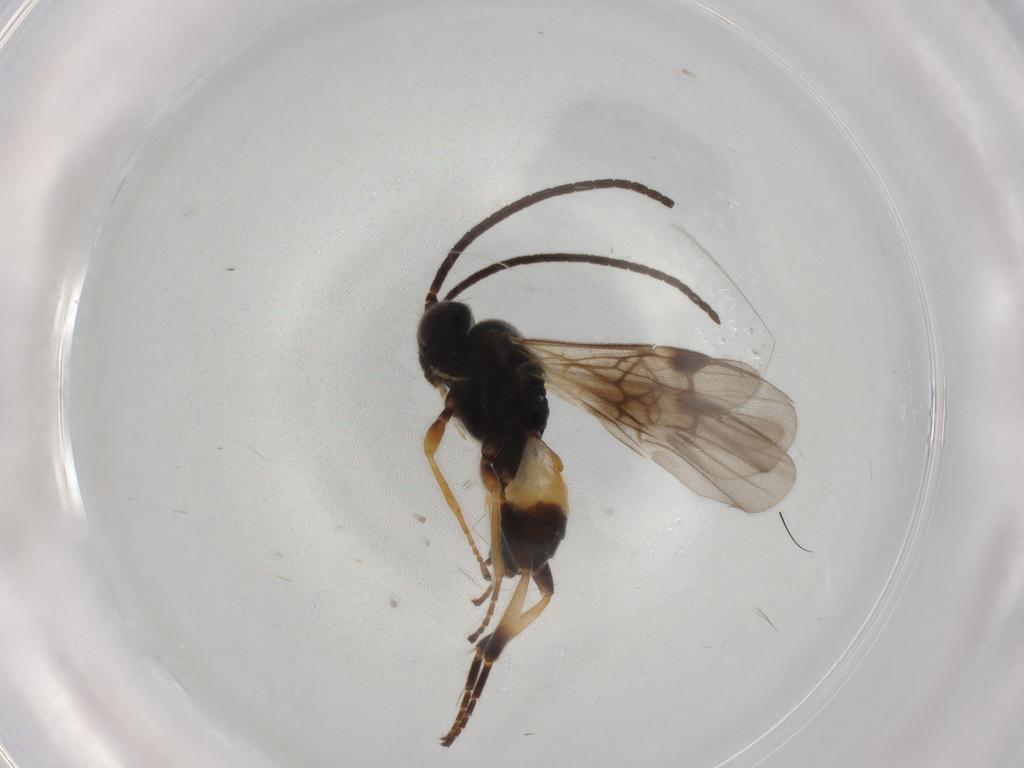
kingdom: Animalia
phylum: Arthropoda
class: Insecta
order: Hymenoptera
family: Braconidae
